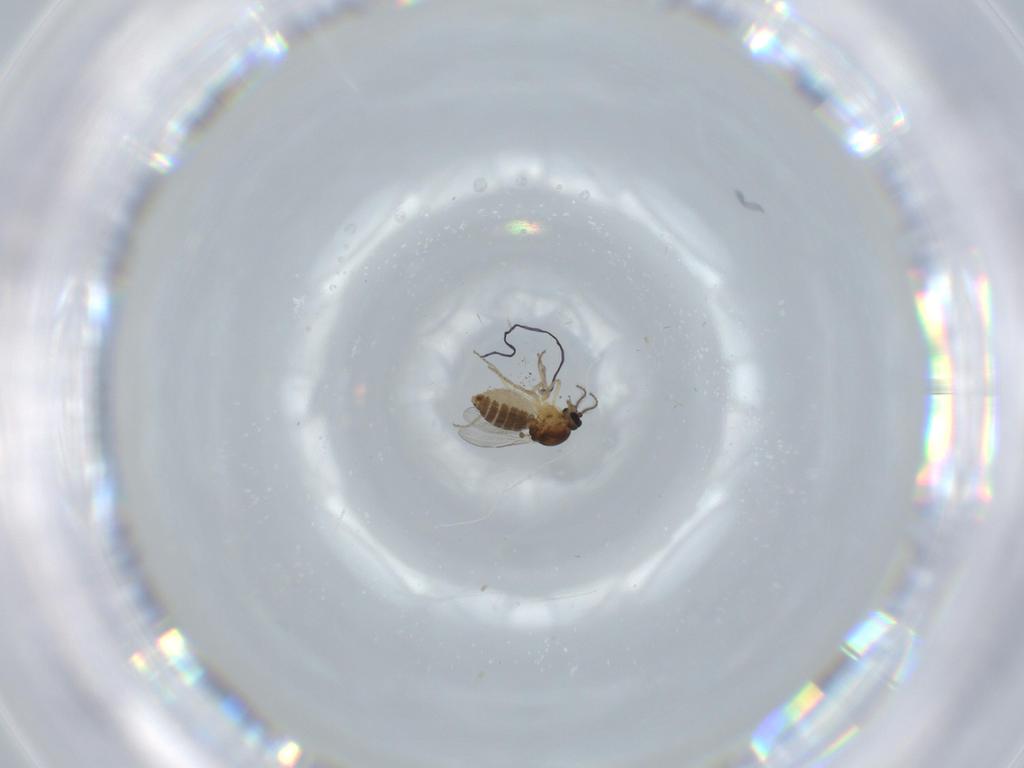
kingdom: Animalia
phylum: Arthropoda
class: Insecta
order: Diptera
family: Ceratopogonidae
